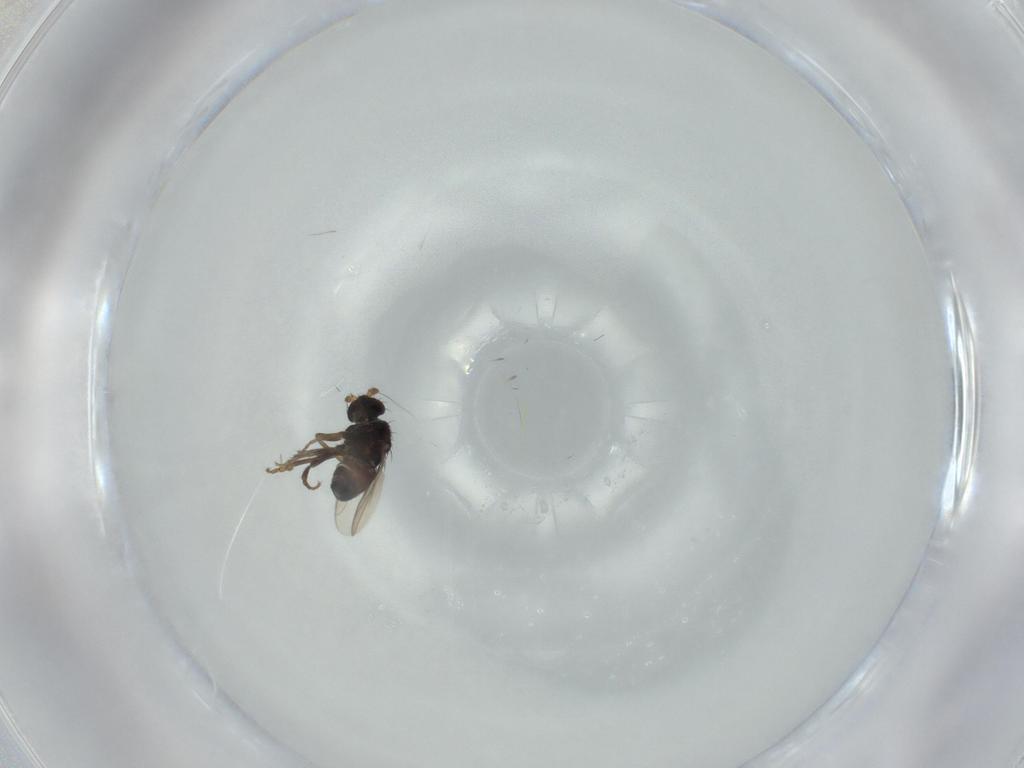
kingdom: Animalia
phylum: Arthropoda
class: Insecta
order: Diptera
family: Sphaeroceridae
